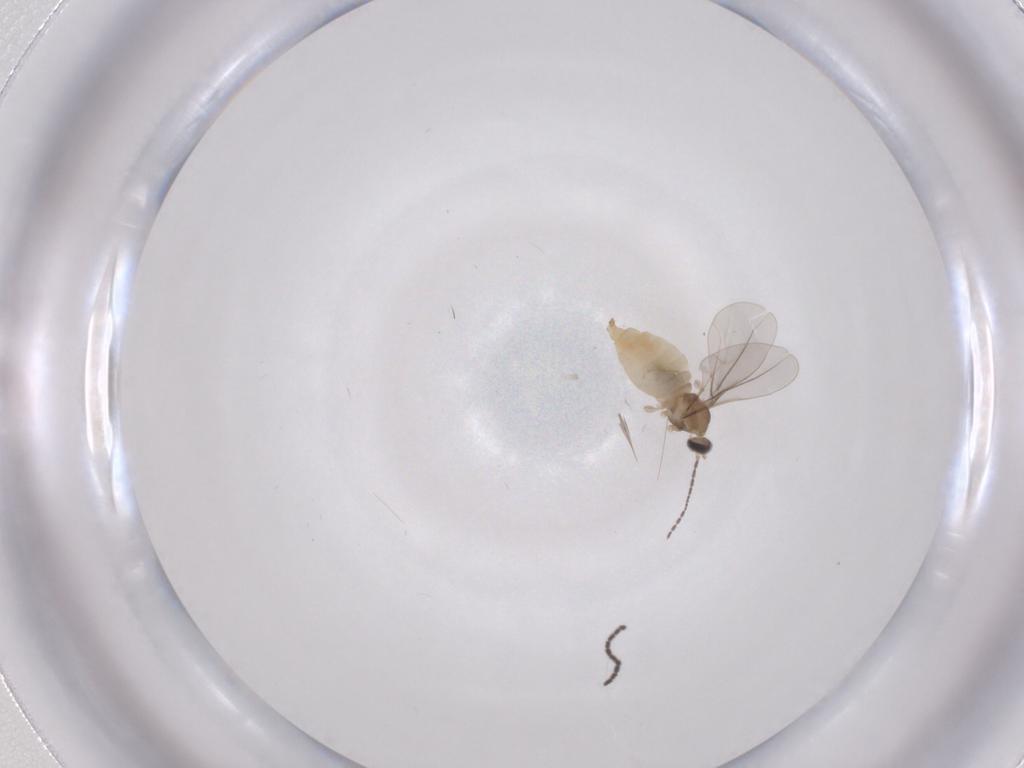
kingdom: Animalia
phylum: Arthropoda
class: Insecta
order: Diptera
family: Cecidomyiidae
